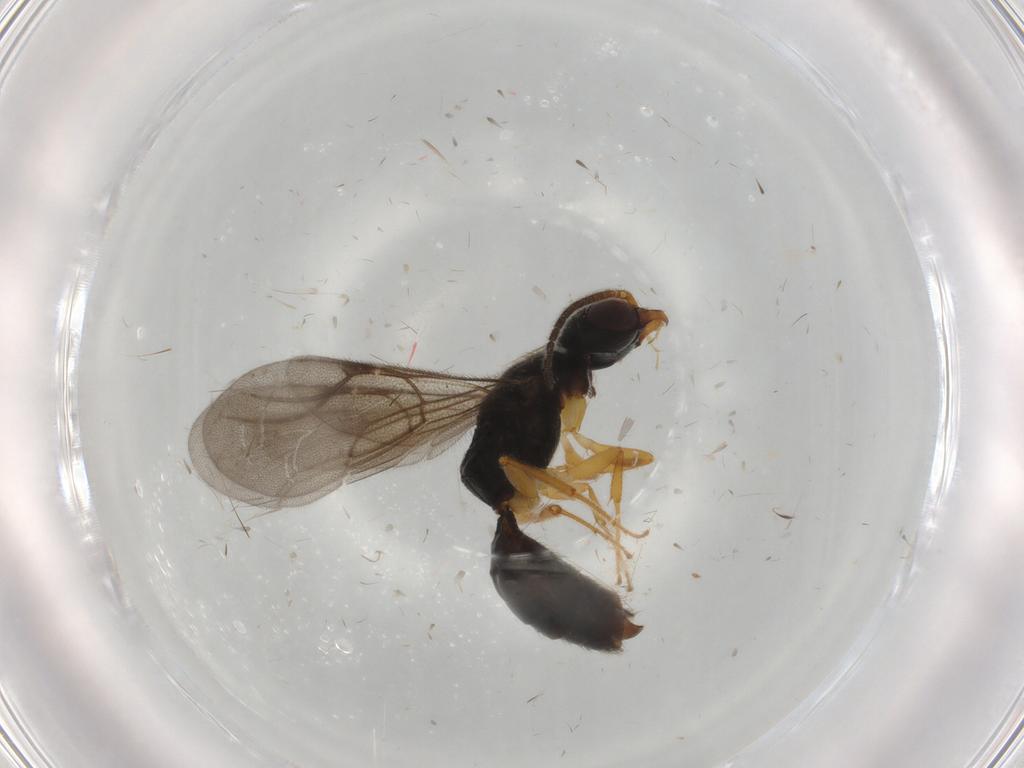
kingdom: Animalia
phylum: Arthropoda
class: Insecta
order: Hymenoptera
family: Bethylidae
